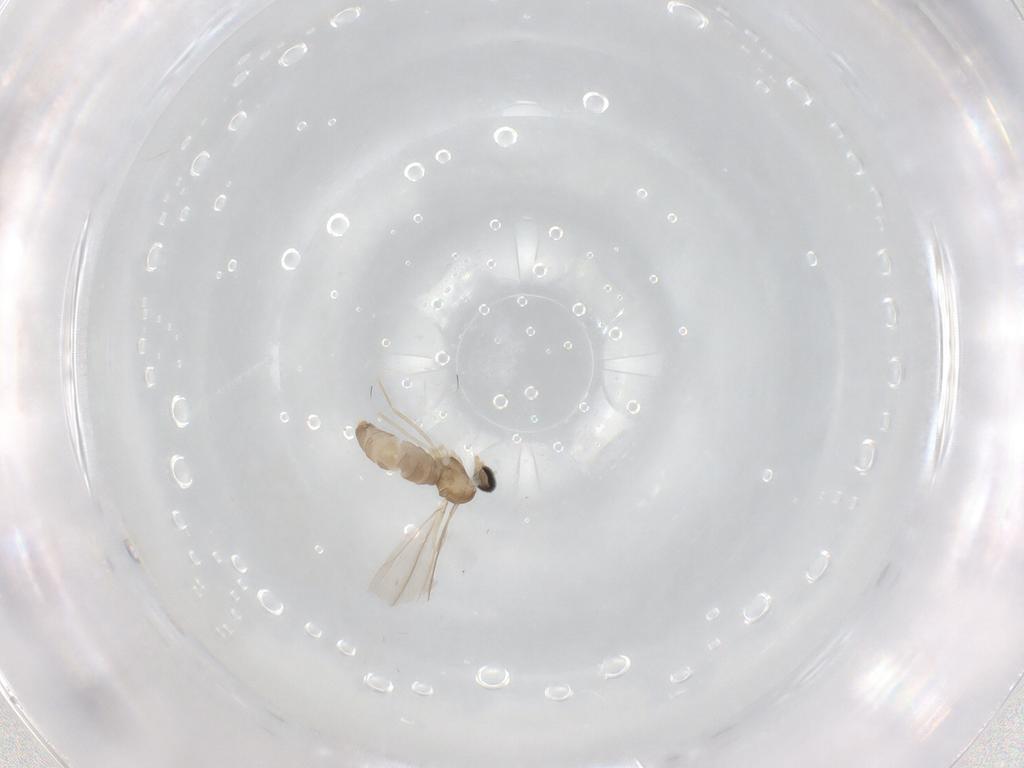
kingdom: Animalia
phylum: Arthropoda
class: Insecta
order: Diptera
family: Cecidomyiidae
